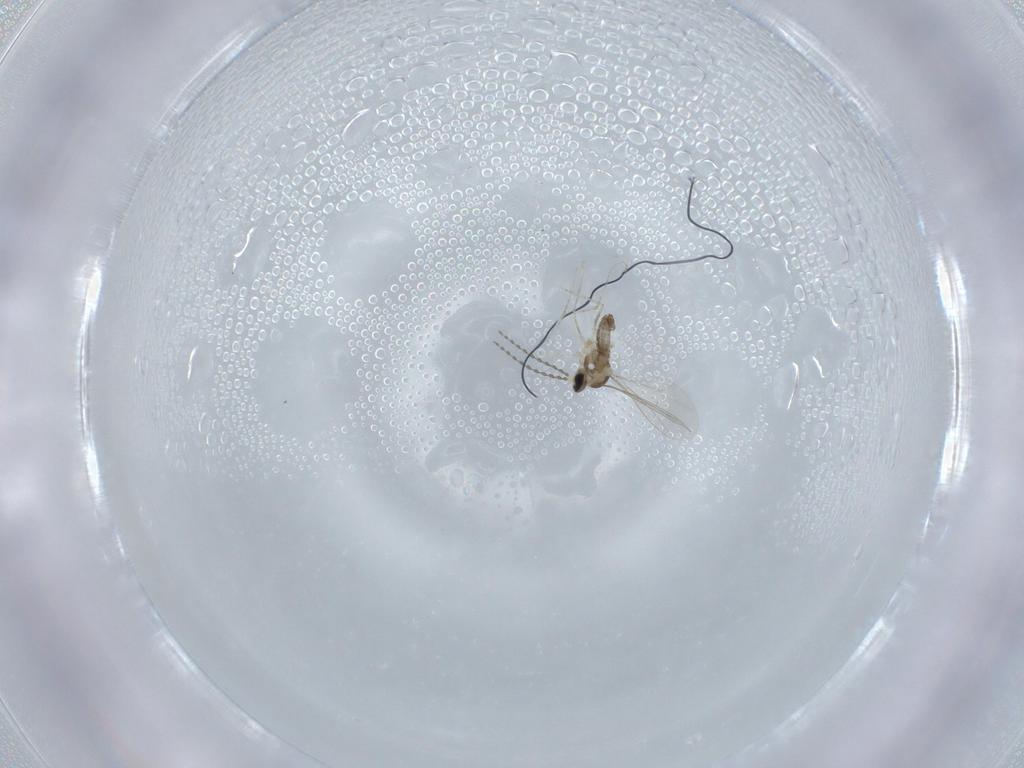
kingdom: Animalia
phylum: Arthropoda
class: Insecta
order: Diptera
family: Cecidomyiidae
